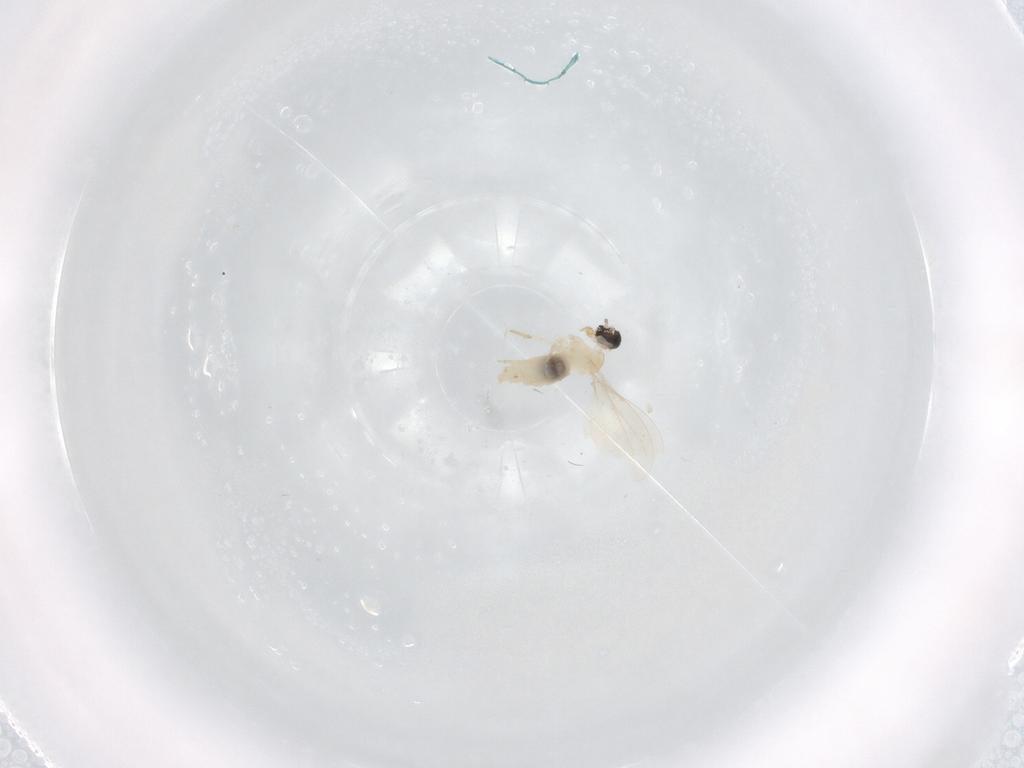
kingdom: Animalia
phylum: Arthropoda
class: Insecta
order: Diptera
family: Cecidomyiidae
